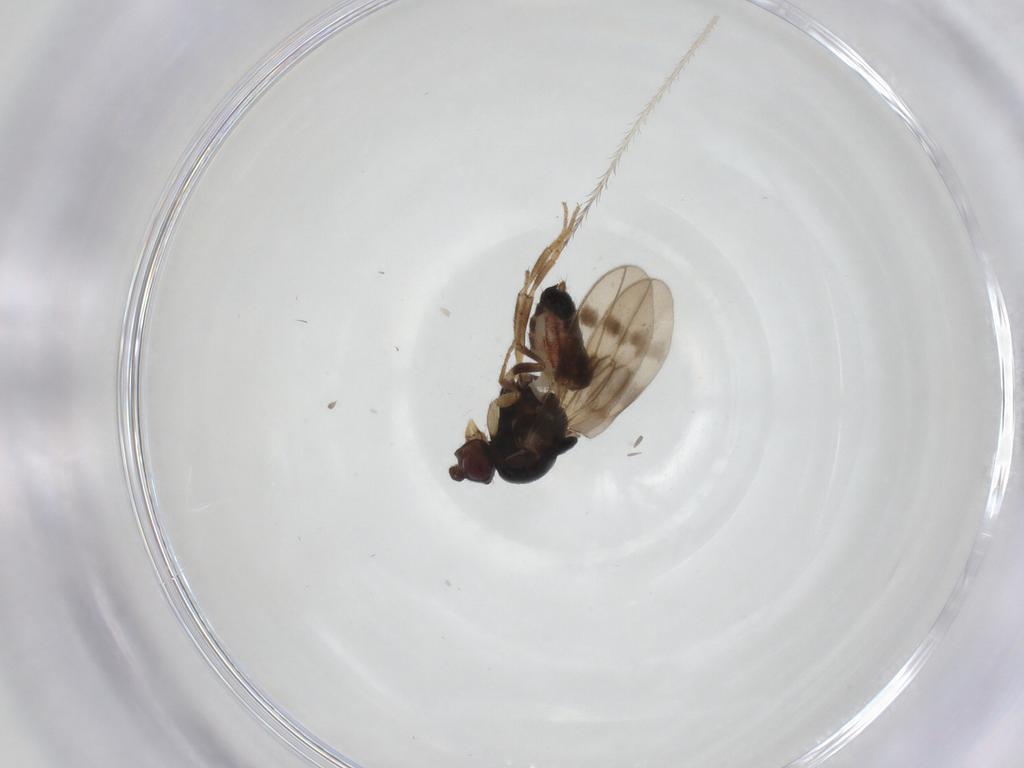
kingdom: Animalia
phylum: Arthropoda
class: Insecta
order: Diptera
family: Sphaeroceridae
